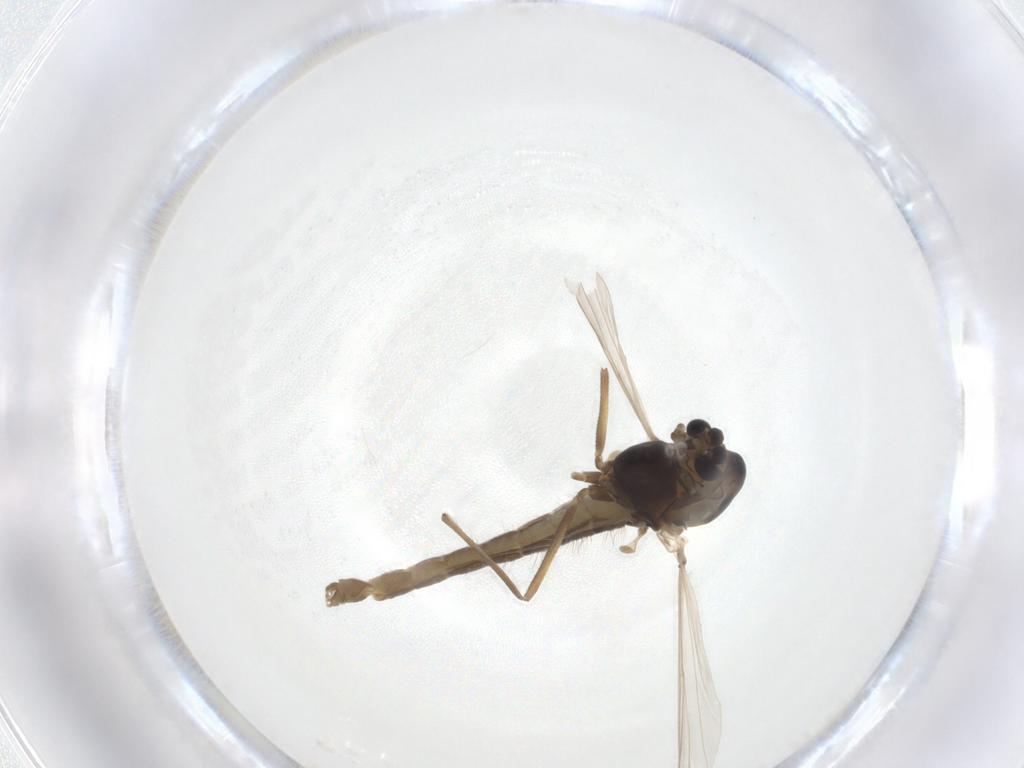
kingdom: Animalia
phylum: Arthropoda
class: Insecta
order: Diptera
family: Chironomidae
